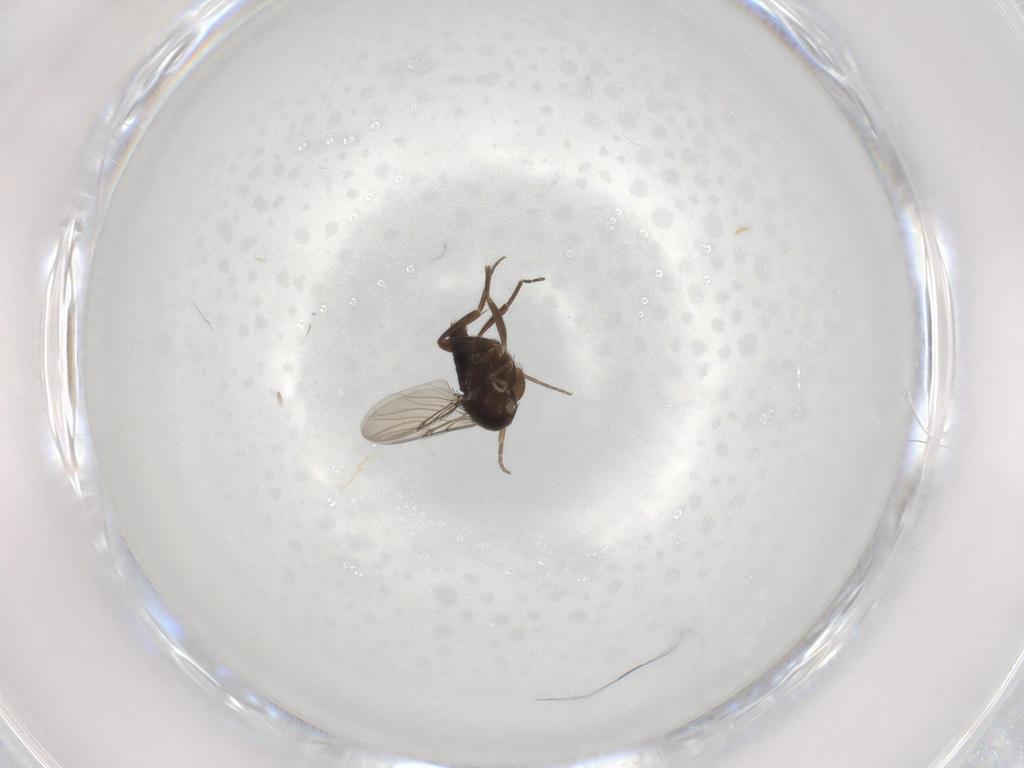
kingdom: Animalia
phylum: Arthropoda
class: Insecta
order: Diptera
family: Phoridae
